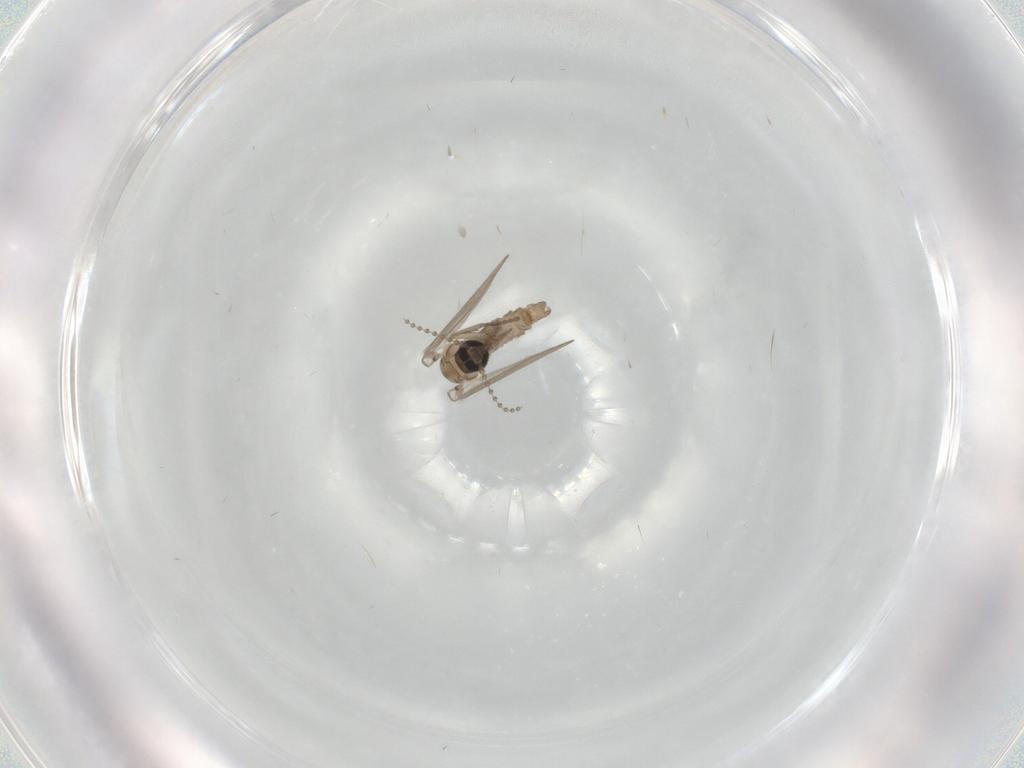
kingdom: Animalia
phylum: Arthropoda
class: Insecta
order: Diptera
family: Psychodidae
